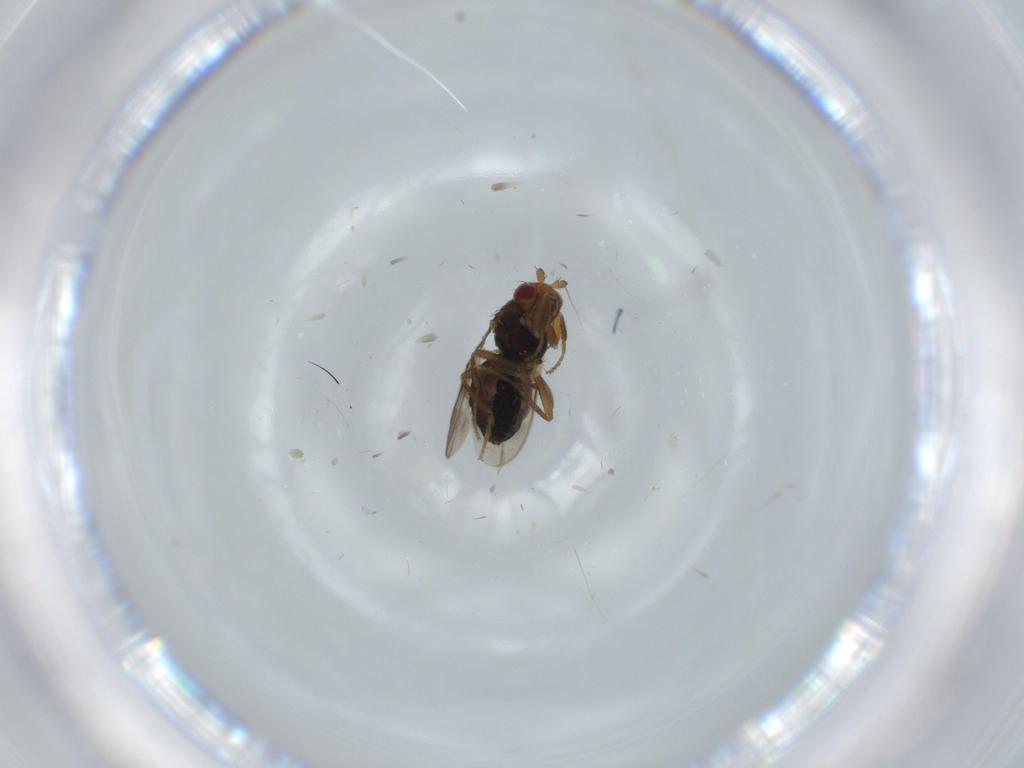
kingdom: Animalia
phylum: Arthropoda
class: Insecta
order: Diptera
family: Sphaeroceridae
